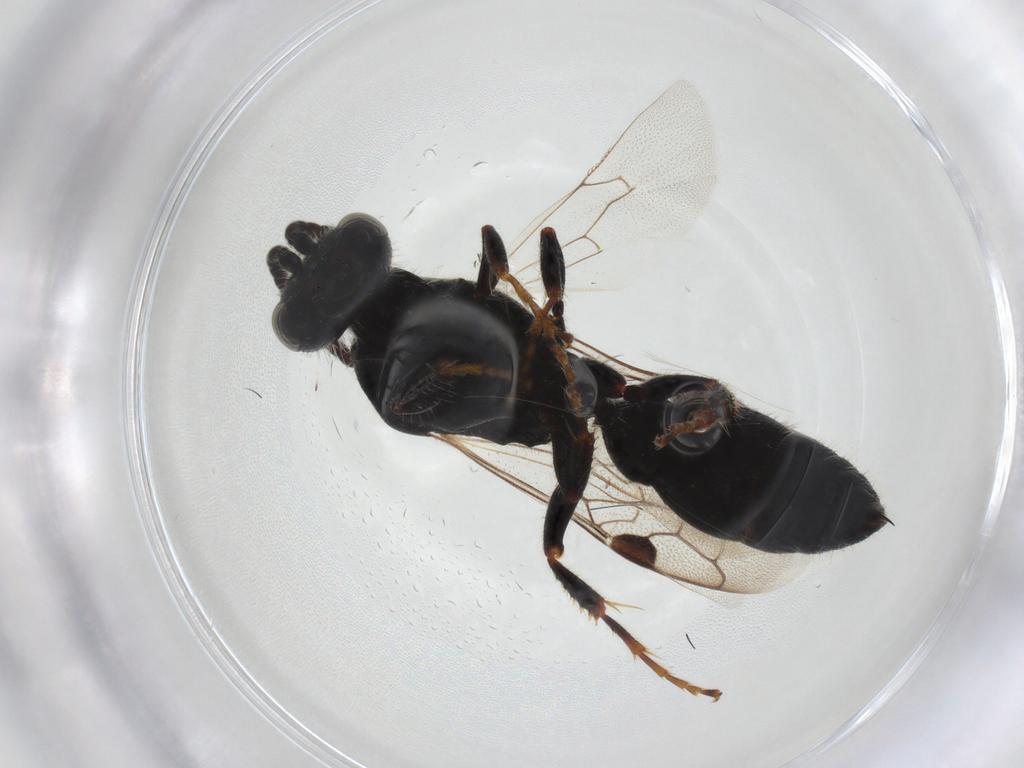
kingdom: Animalia
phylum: Arthropoda
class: Insecta
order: Hymenoptera
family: Tiphiidae
